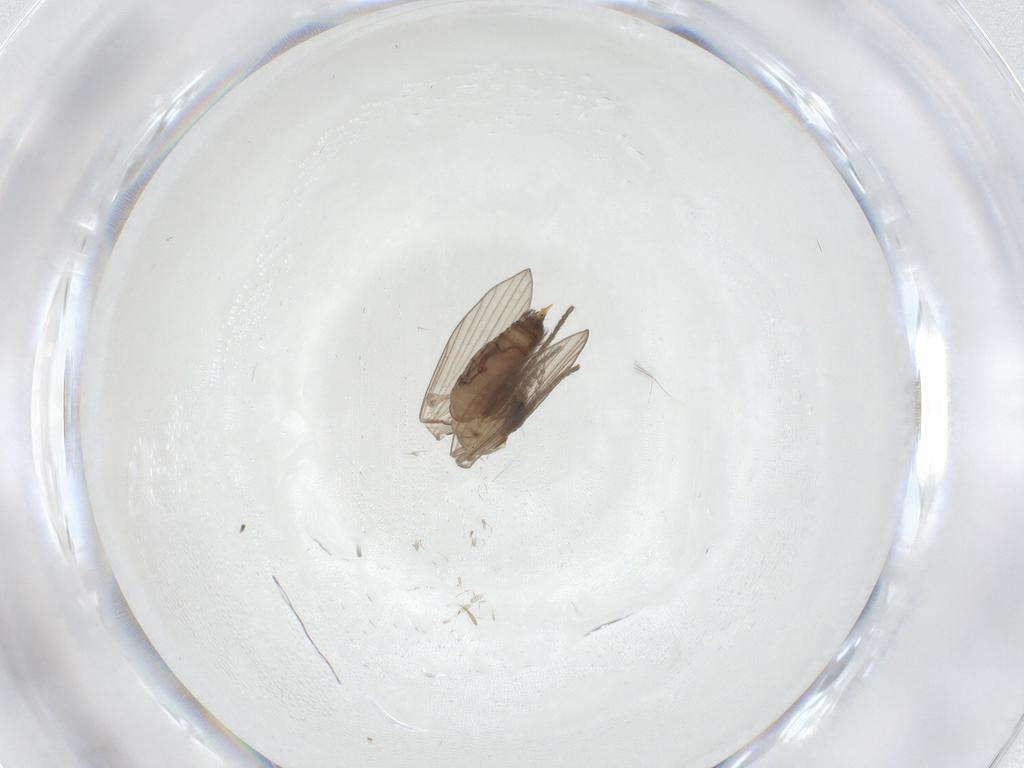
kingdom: Animalia
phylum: Arthropoda
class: Insecta
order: Diptera
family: Psychodidae
